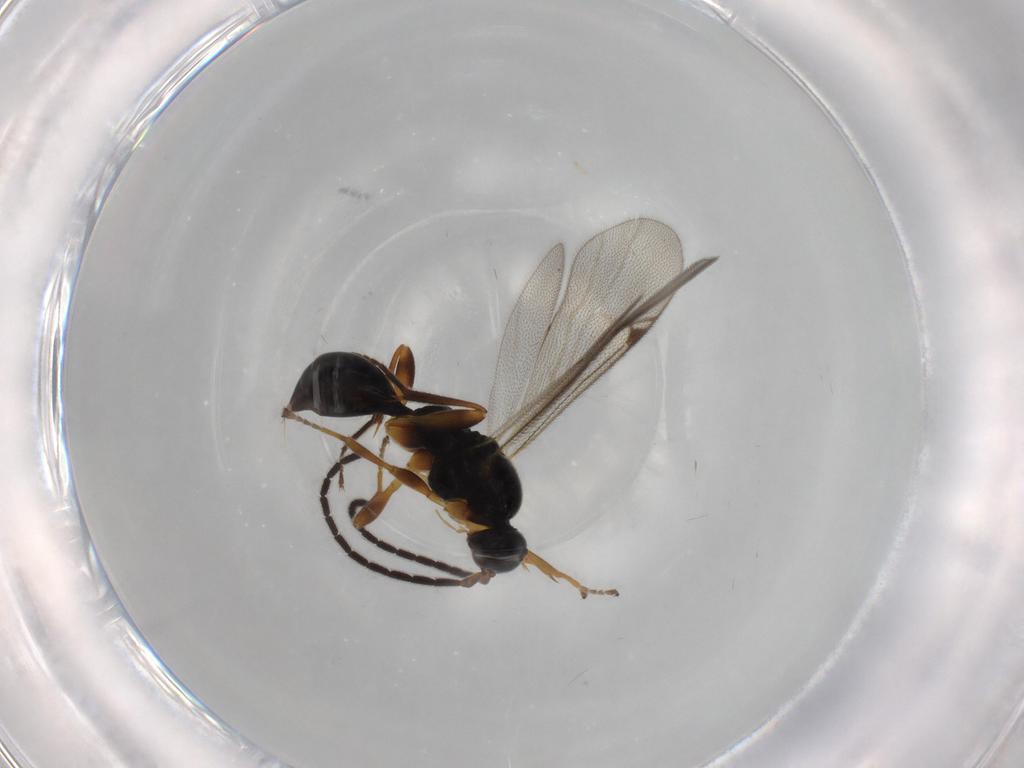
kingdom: Animalia
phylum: Arthropoda
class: Insecta
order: Hymenoptera
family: Proctotrupidae
